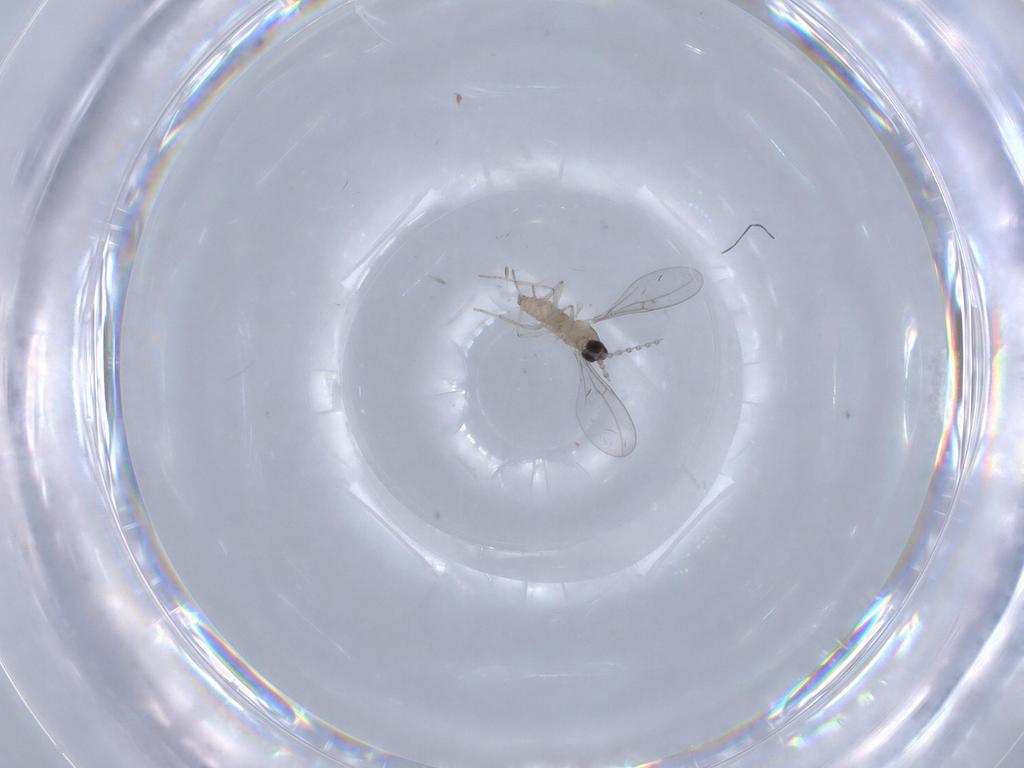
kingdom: Animalia
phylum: Arthropoda
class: Insecta
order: Diptera
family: Cecidomyiidae
